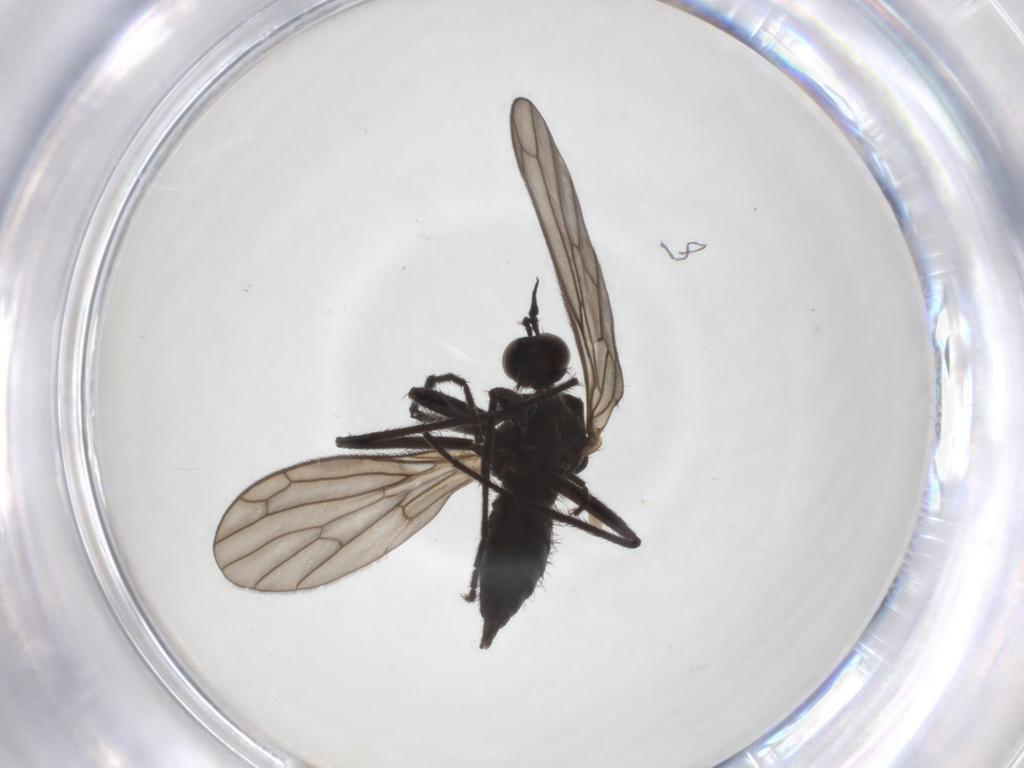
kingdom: Animalia
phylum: Arthropoda
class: Insecta
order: Diptera
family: Empididae
